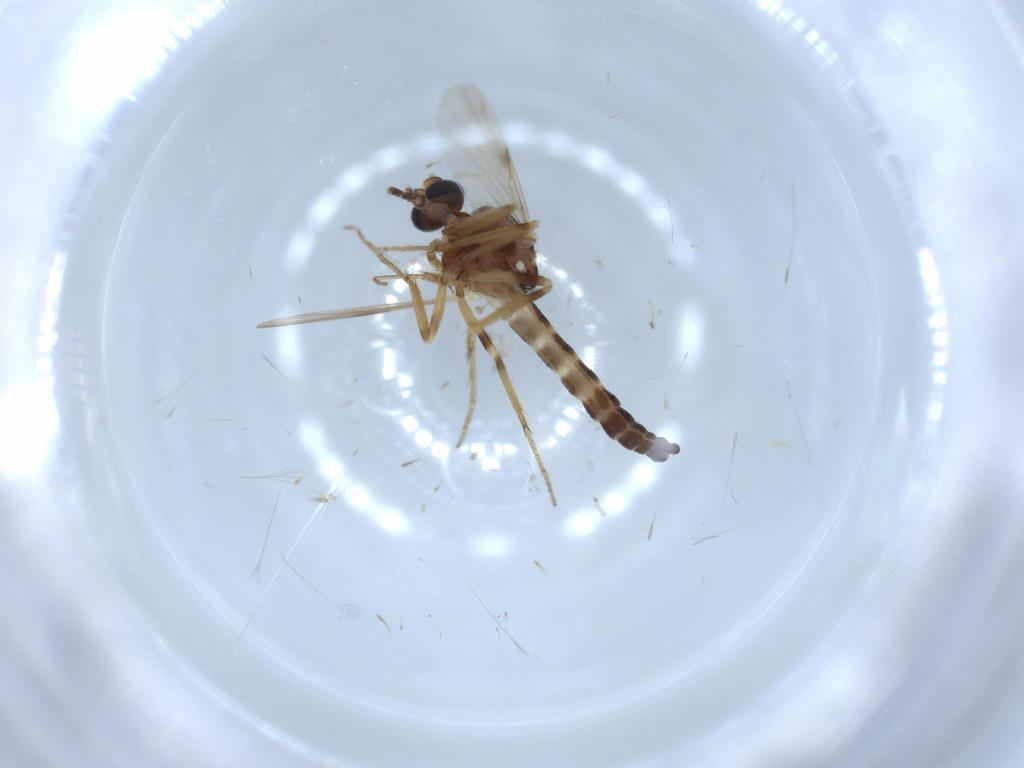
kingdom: Animalia
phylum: Arthropoda
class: Insecta
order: Diptera
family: Ceratopogonidae
